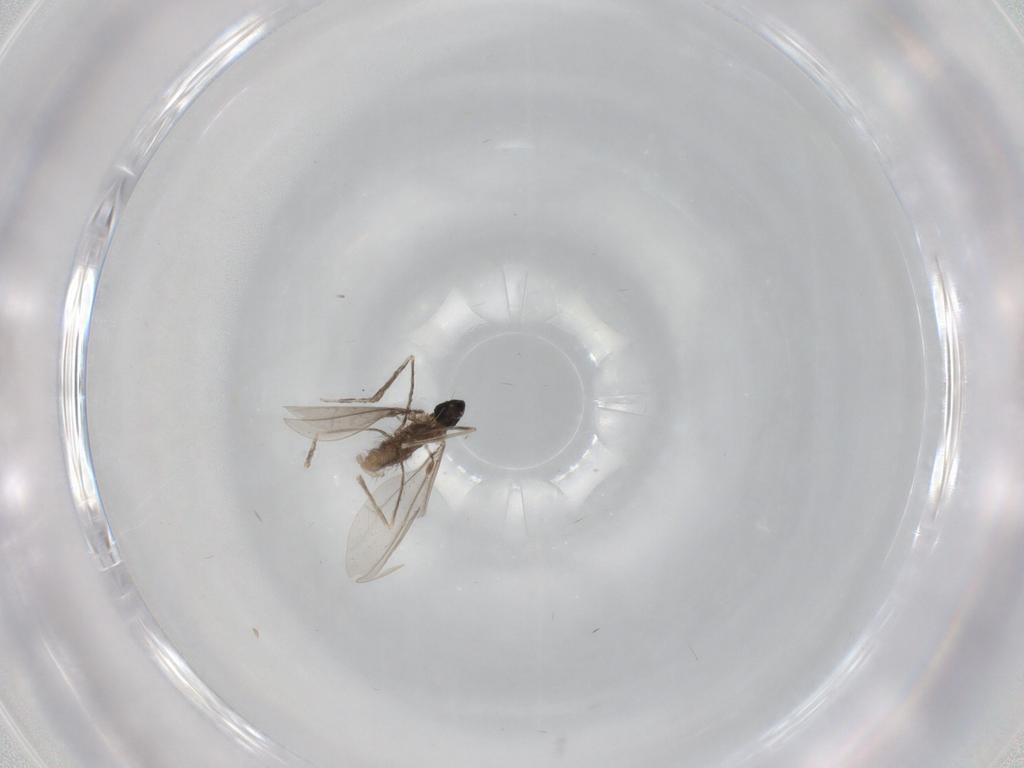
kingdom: Animalia
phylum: Arthropoda
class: Insecta
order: Diptera
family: Cecidomyiidae
